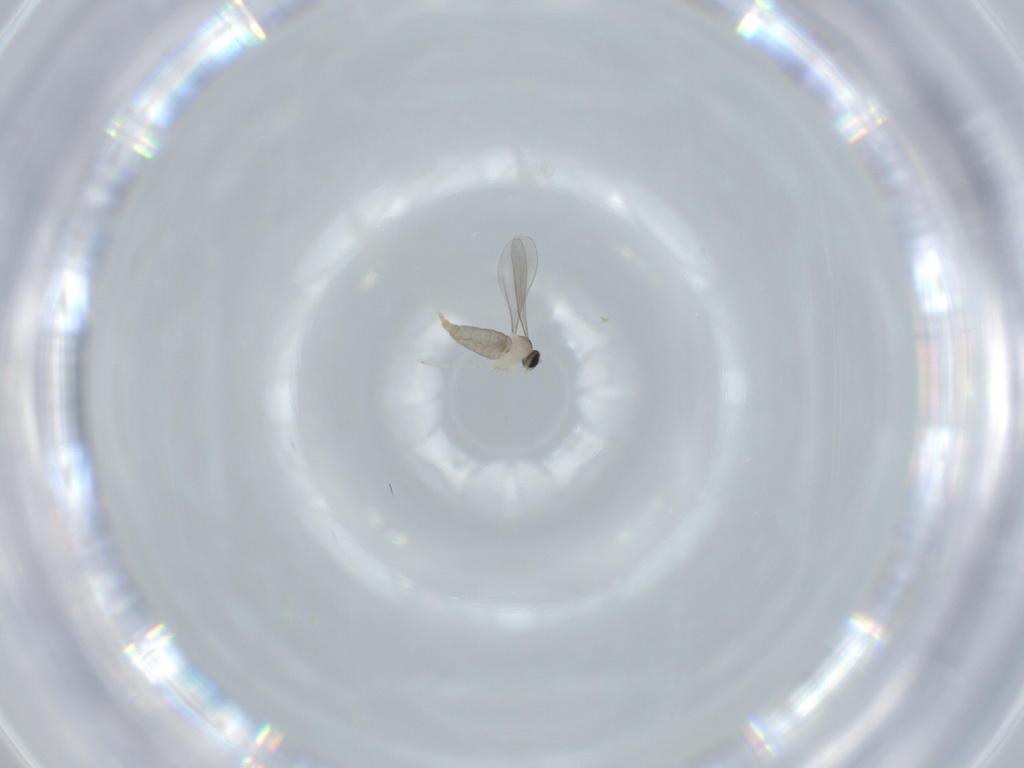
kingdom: Animalia
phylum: Arthropoda
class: Insecta
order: Diptera
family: Cecidomyiidae
